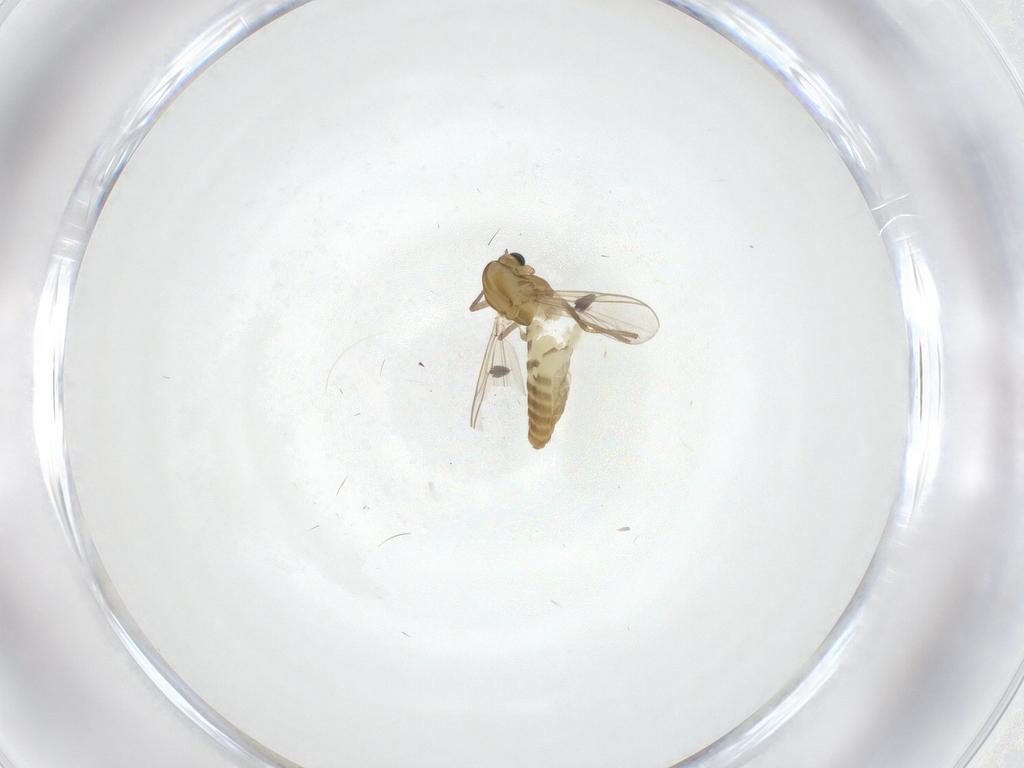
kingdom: Animalia
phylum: Arthropoda
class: Insecta
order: Diptera
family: Chironomidae
